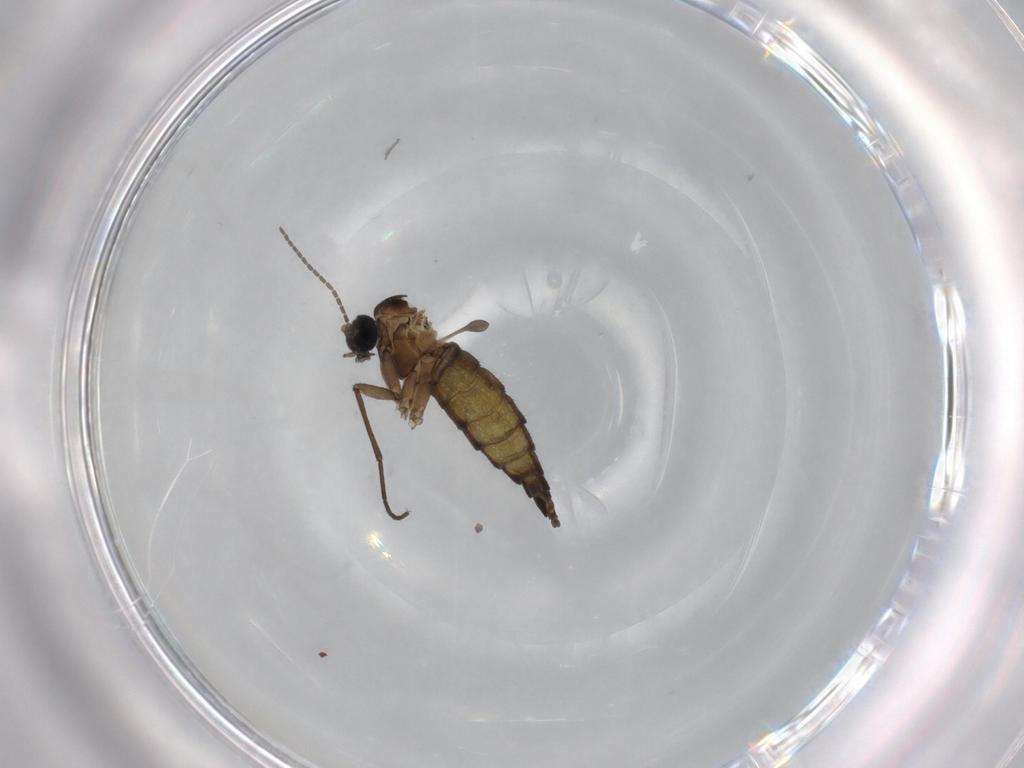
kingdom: Animalia
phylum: Arthropoda
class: Insecta
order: Diptera
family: Sciaridae
